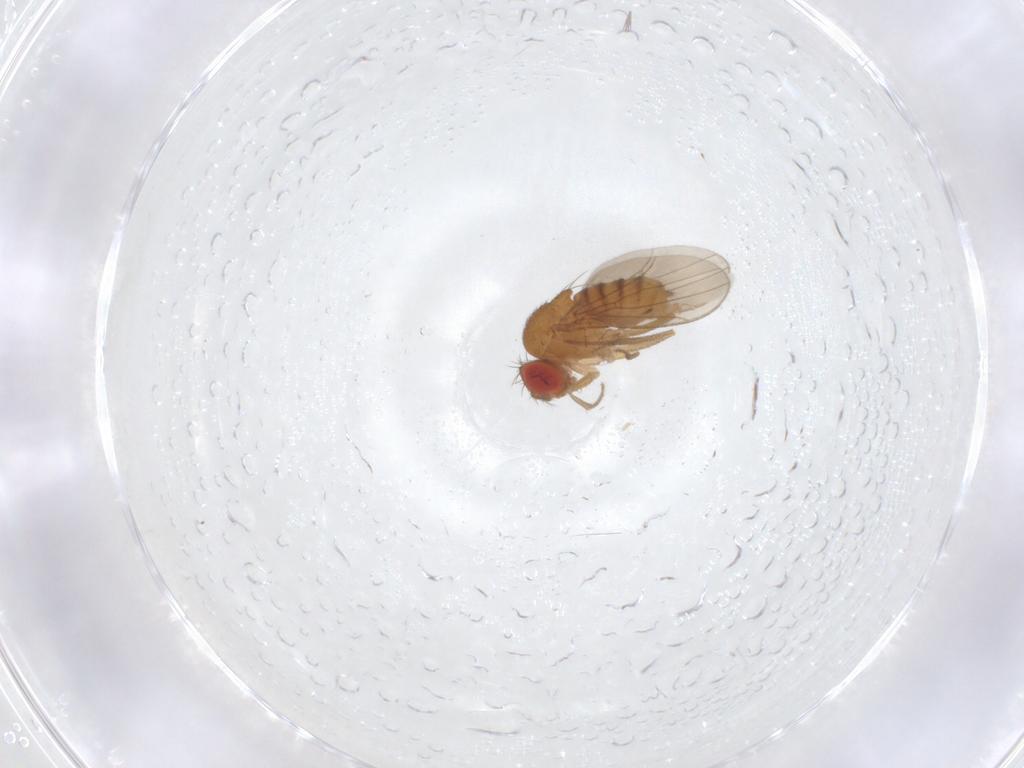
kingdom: Animalia
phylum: Arthropoda
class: Insecta
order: Diptera
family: Drosophilidae
